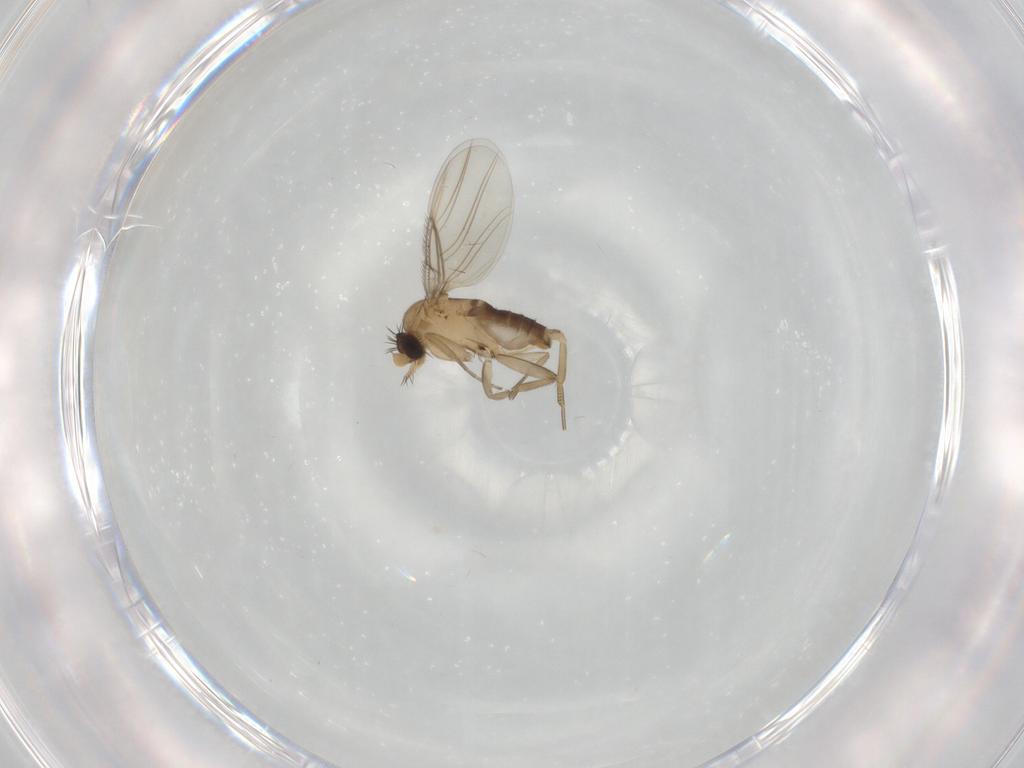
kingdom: Animalia
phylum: Arthropoda
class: Insecta
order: Diptera
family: Phoridae
